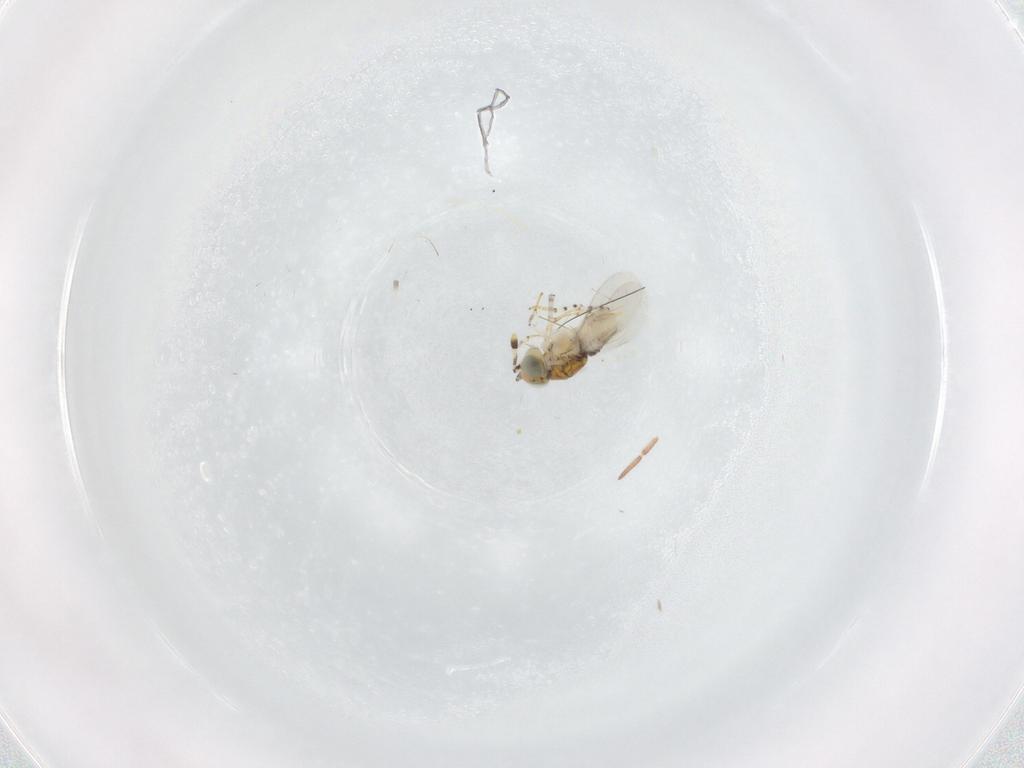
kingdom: Animalia
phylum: Arthropoda
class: Insecta
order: Hymenoptera
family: Encyrtidae
